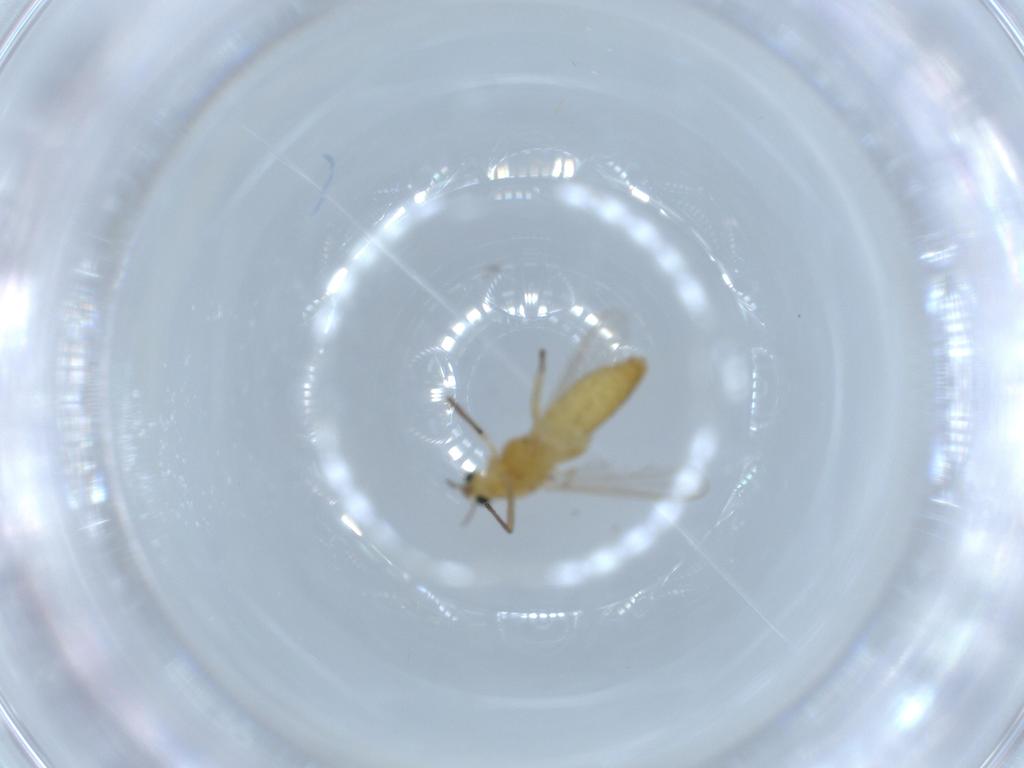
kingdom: Animalia
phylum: Arthropoda
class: Insecta
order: Diptera
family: Chironomidae
